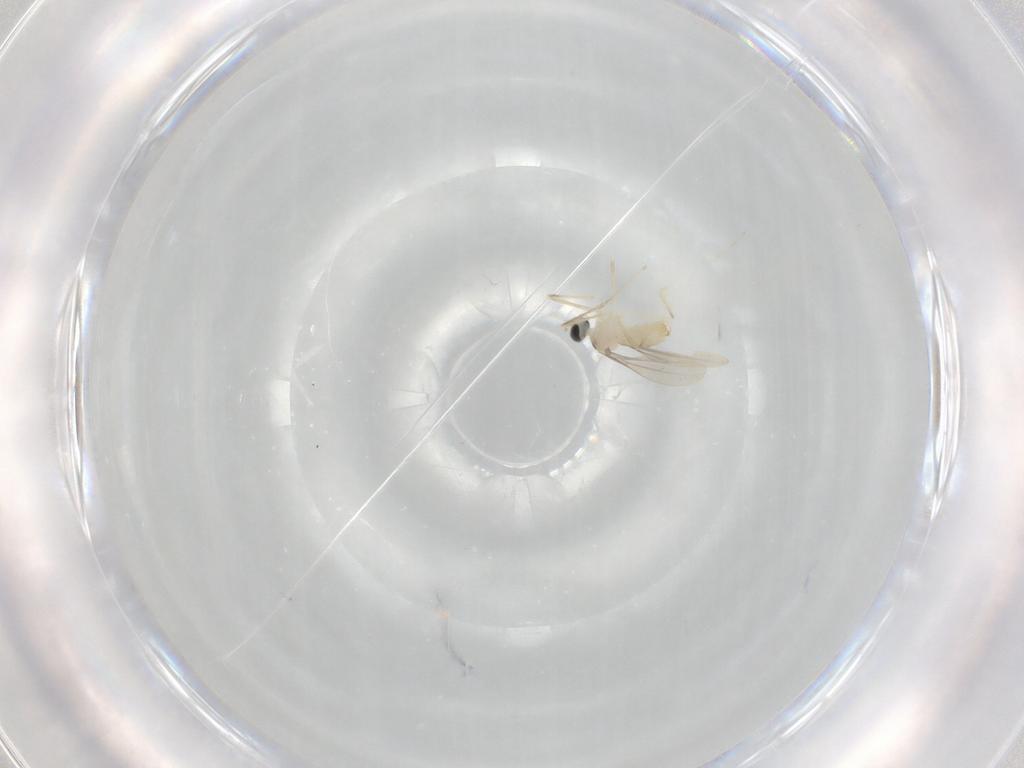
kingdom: Animalia
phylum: Arthropoda
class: Insecta
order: Diptera
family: Cecidomyiidae
